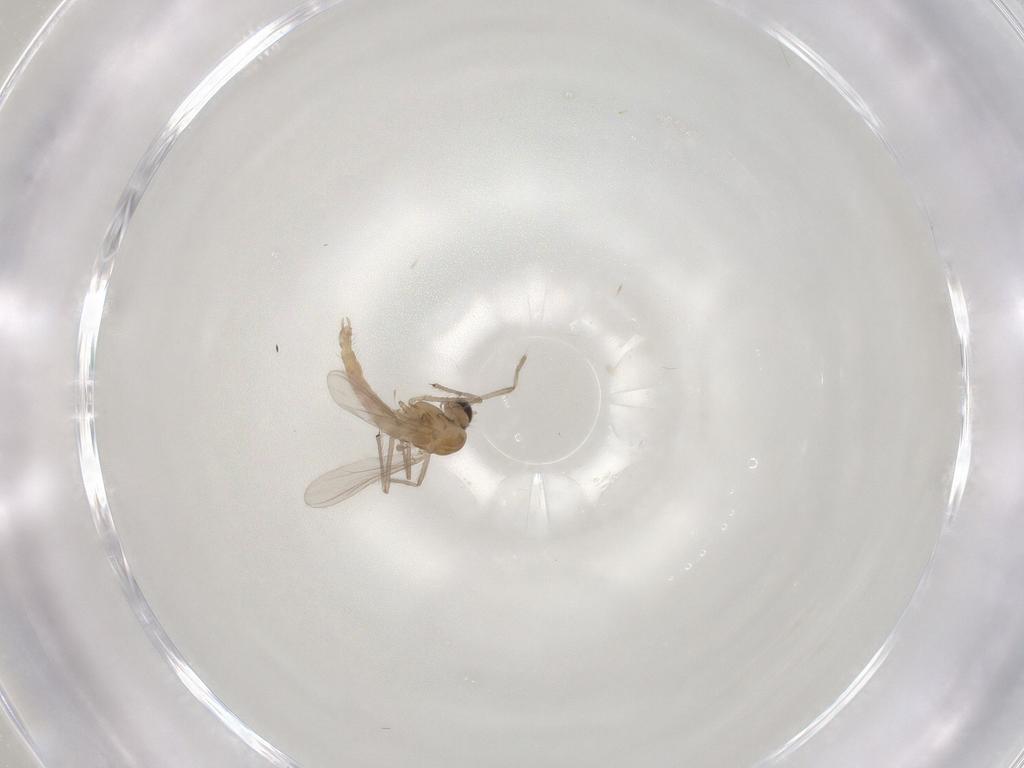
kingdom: Animalia
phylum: Arthropoda
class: Insecta
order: Diptera
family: Chironomidae
